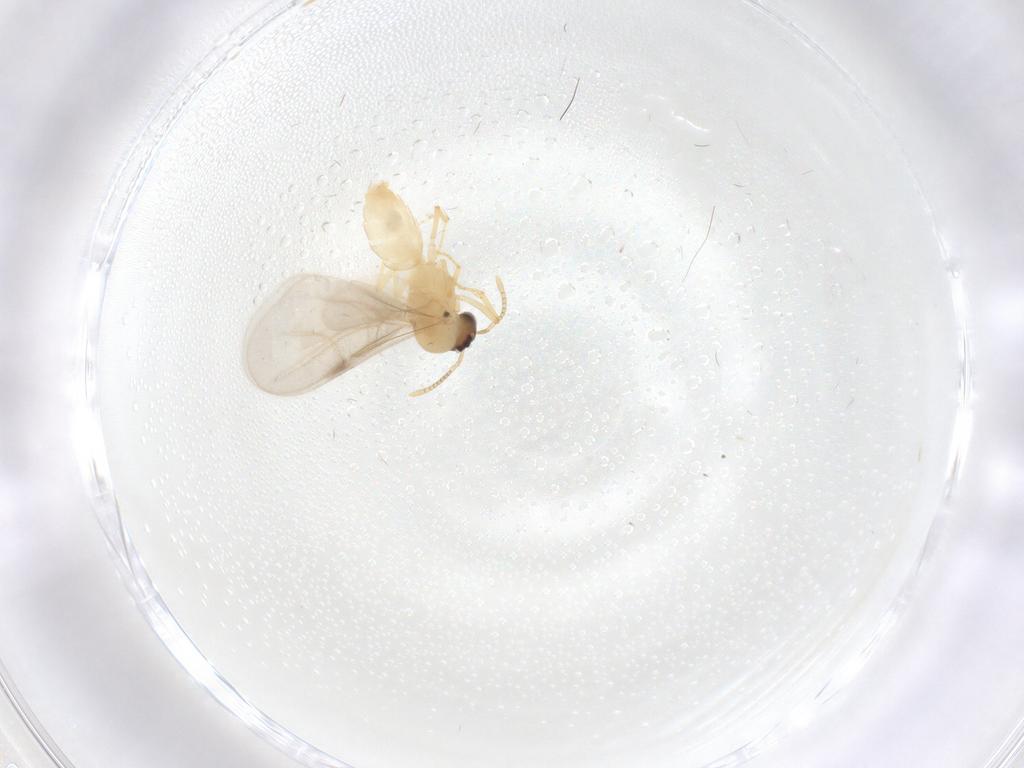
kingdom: Animalia
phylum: Arthropoda
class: Insecta
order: Hymenoptera
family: Formicidae
